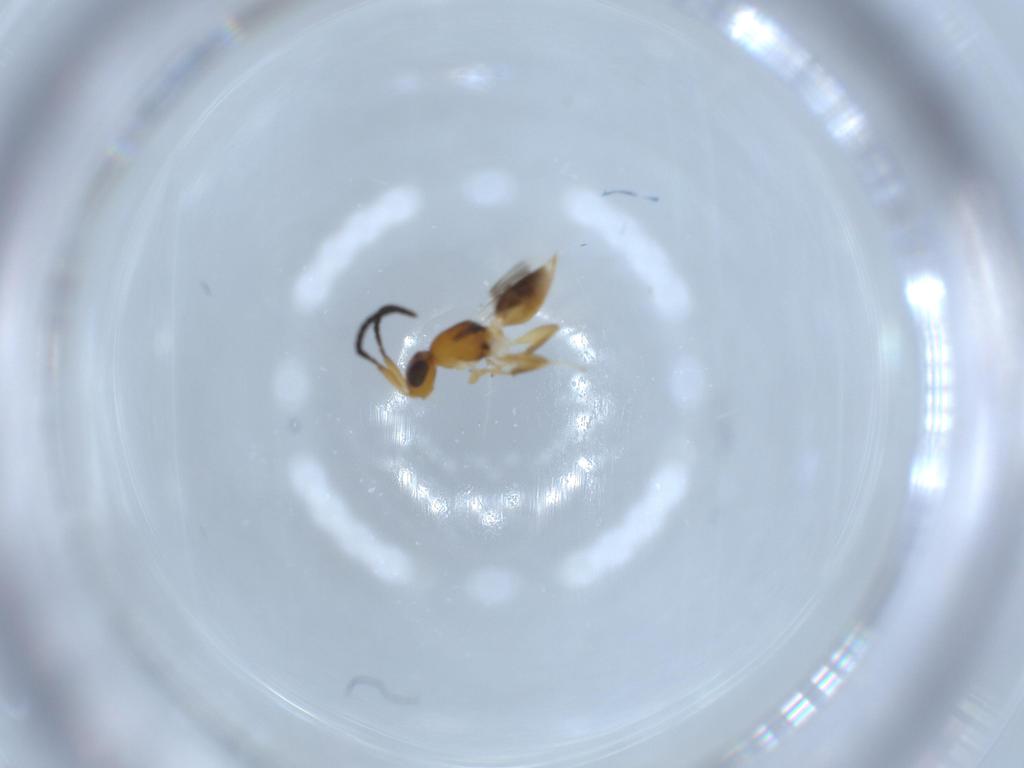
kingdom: Animalia
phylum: Arthropoda
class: Insecta
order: Hymenoptera
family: Megaspilidae
